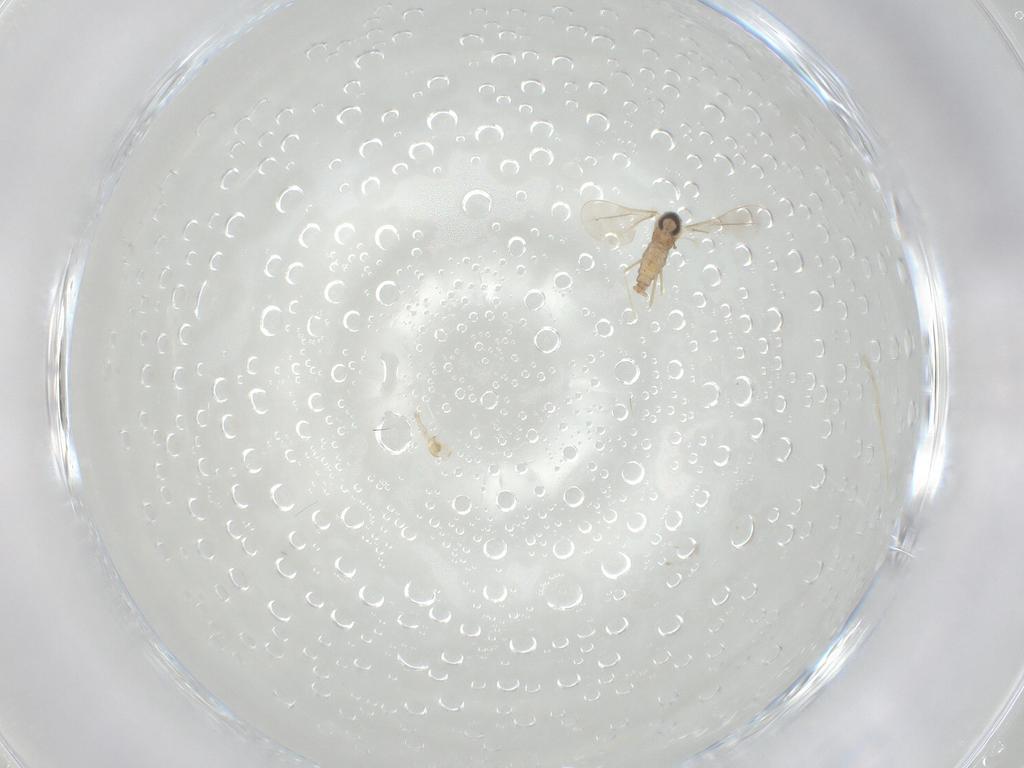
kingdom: Animalia
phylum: Arthropoda
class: Insecta
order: Diptera
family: Cecidomyiidae
